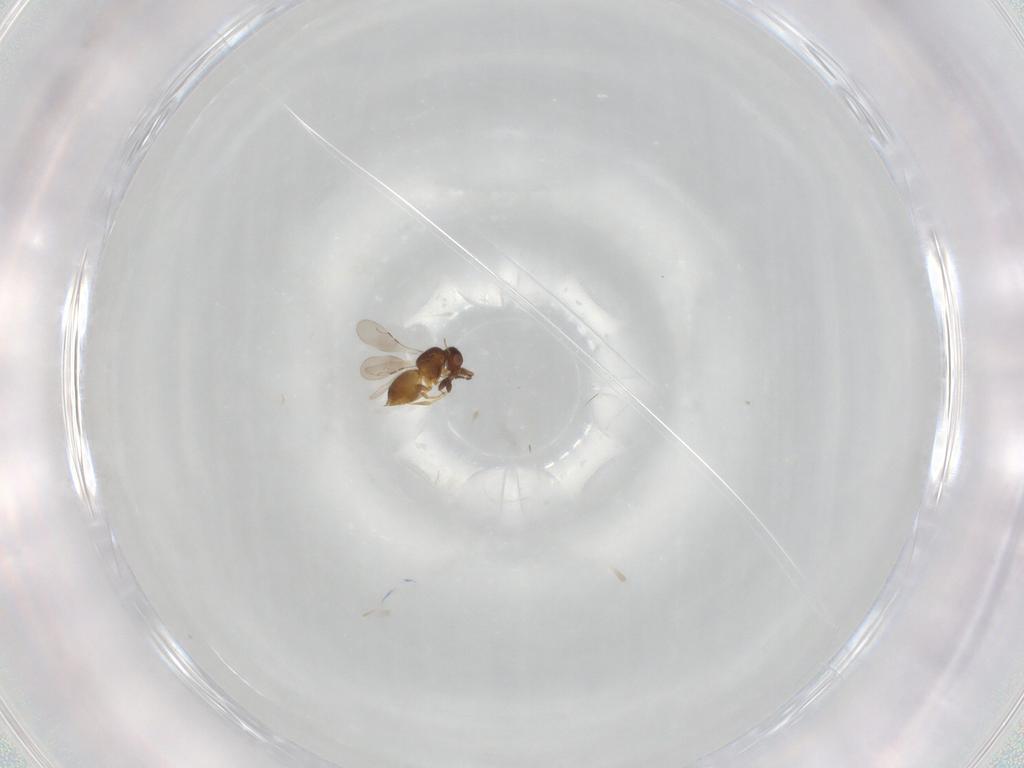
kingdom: Animalia
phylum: Arthropoda
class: Insecta
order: Hymenoptera
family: Ceraphronidae
